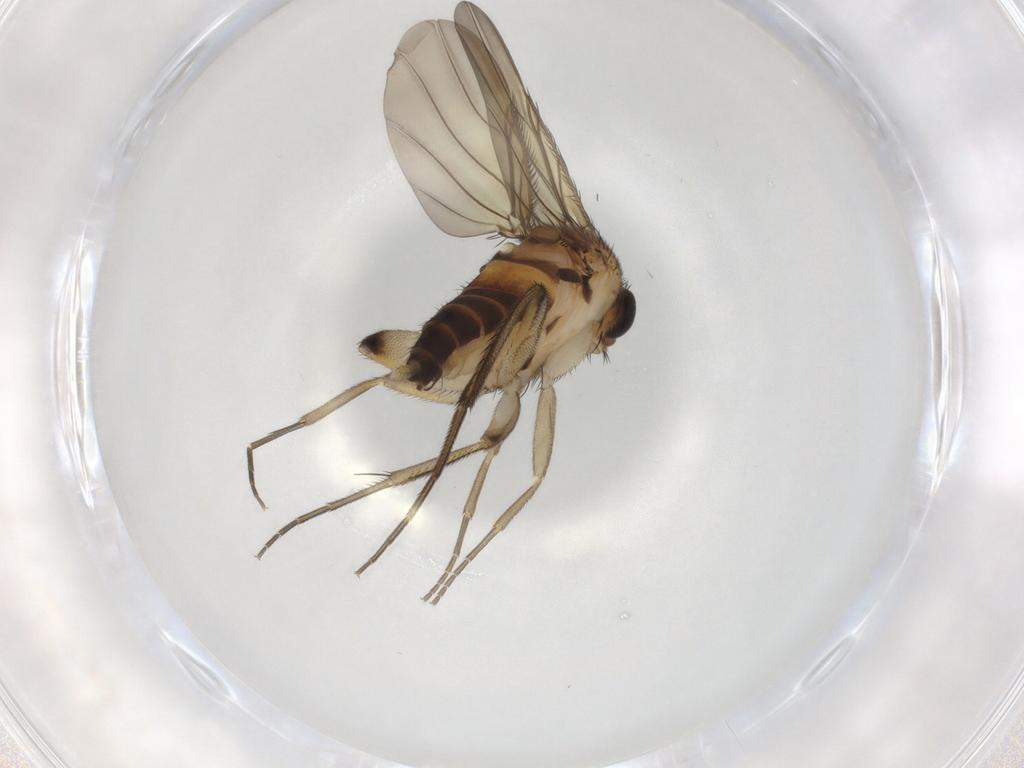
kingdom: Animalia
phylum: Arthropoda
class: Insecta
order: Diptera
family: Phoridae
